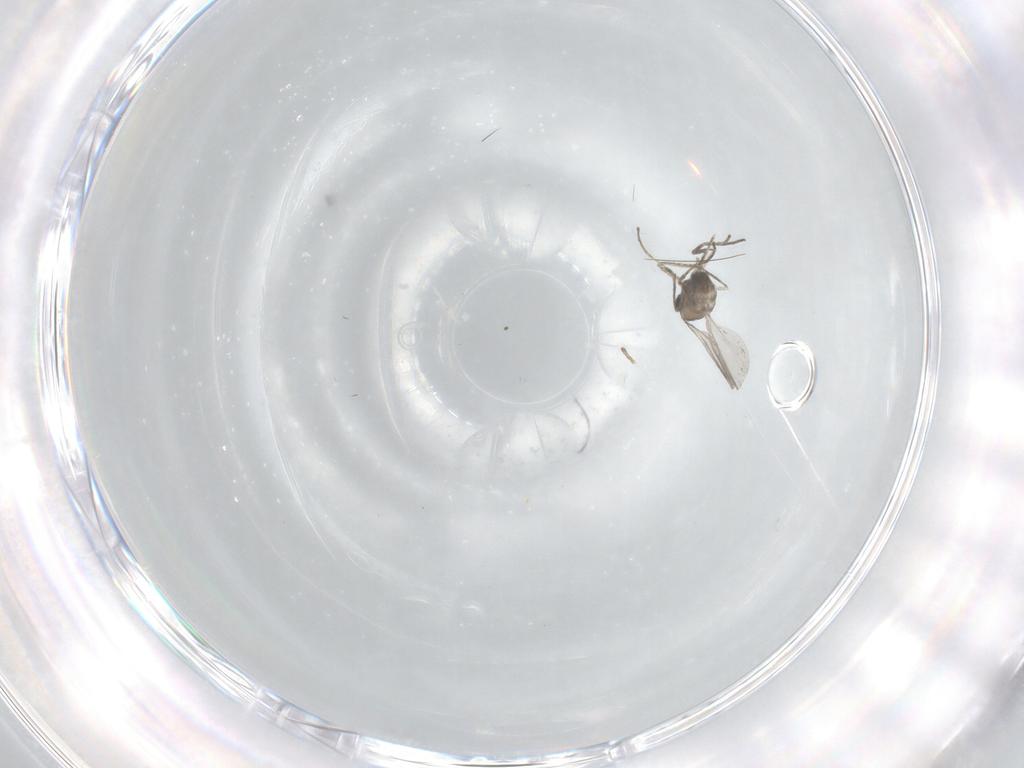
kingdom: Animalia
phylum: Arthropoda
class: Insecta
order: Diptera
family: Cecidomyiidae
